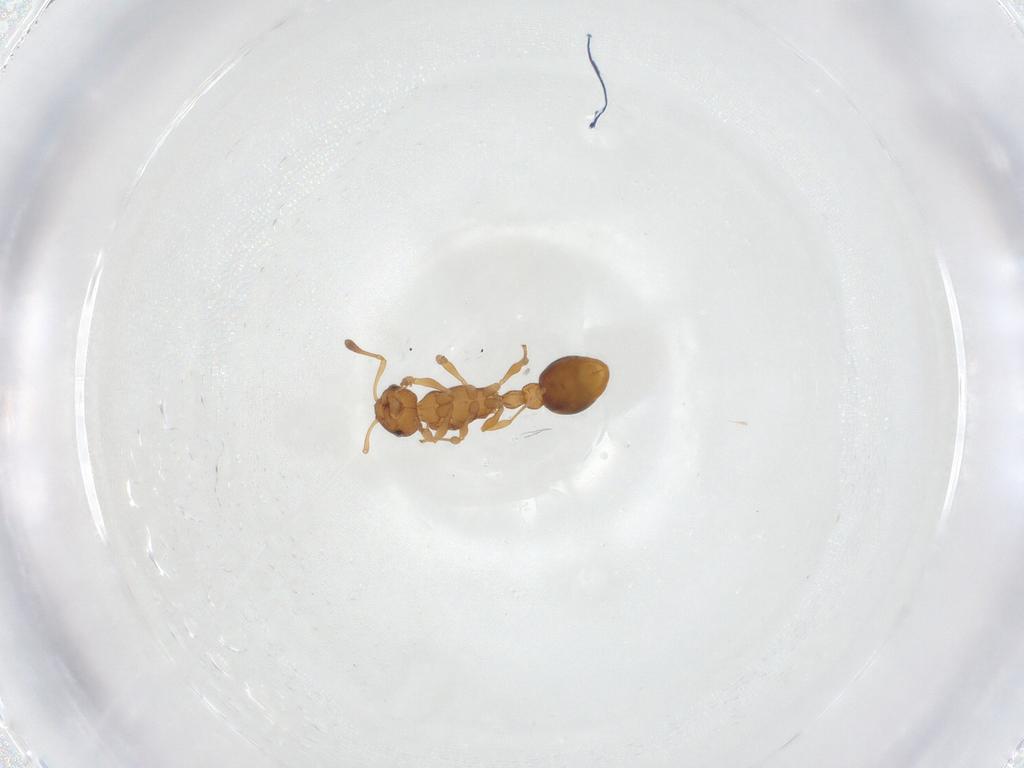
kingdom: Animalia
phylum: Arthropoda
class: Insecta
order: Hymenoptera
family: Formicidae
